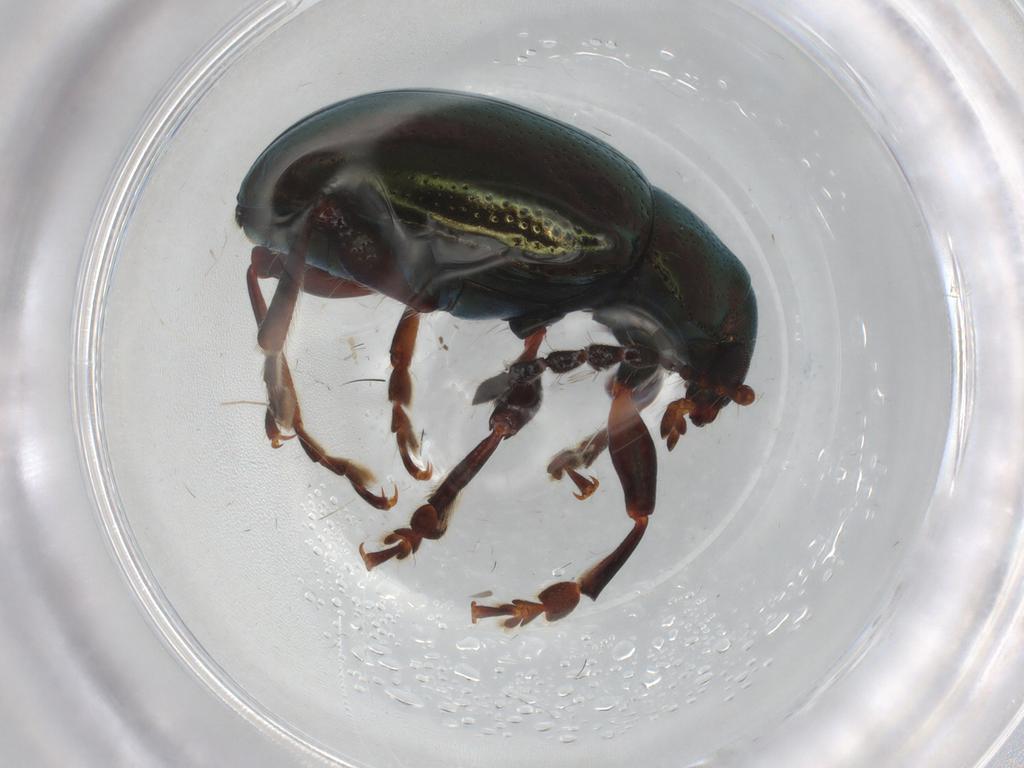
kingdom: Animalia
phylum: Arthropoda
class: Insecta
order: Coleoptera
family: Chrysomelidae
